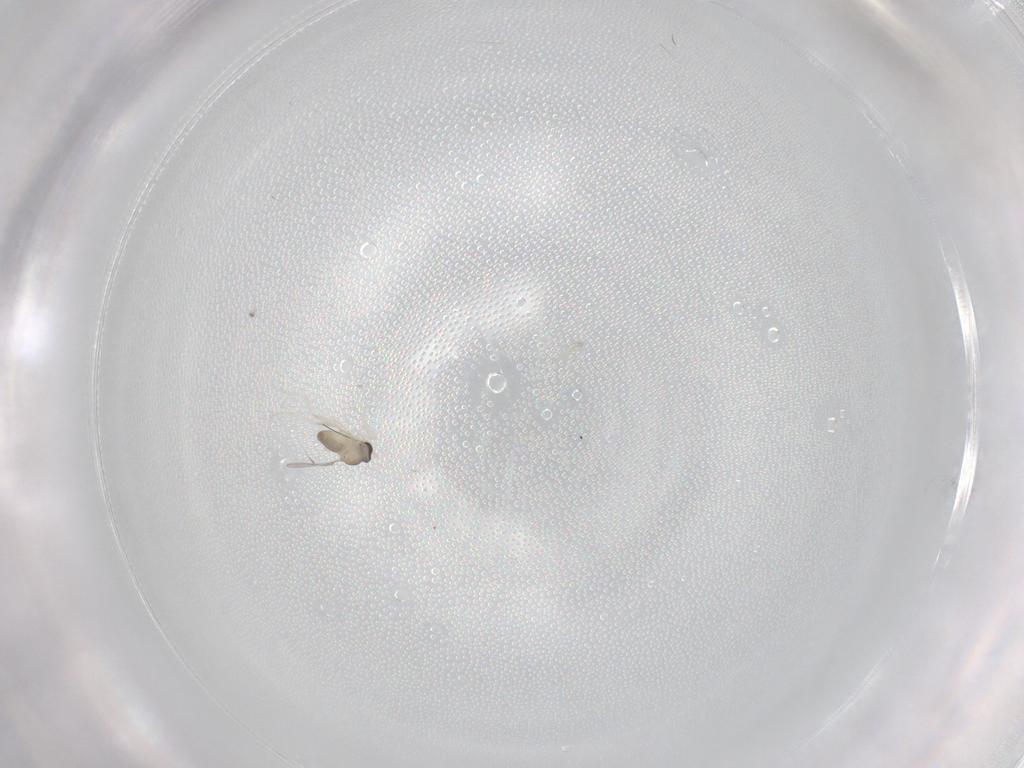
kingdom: Animalia
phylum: Arthropoda
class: Insecta
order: Diptera
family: Cecidomyiidae
